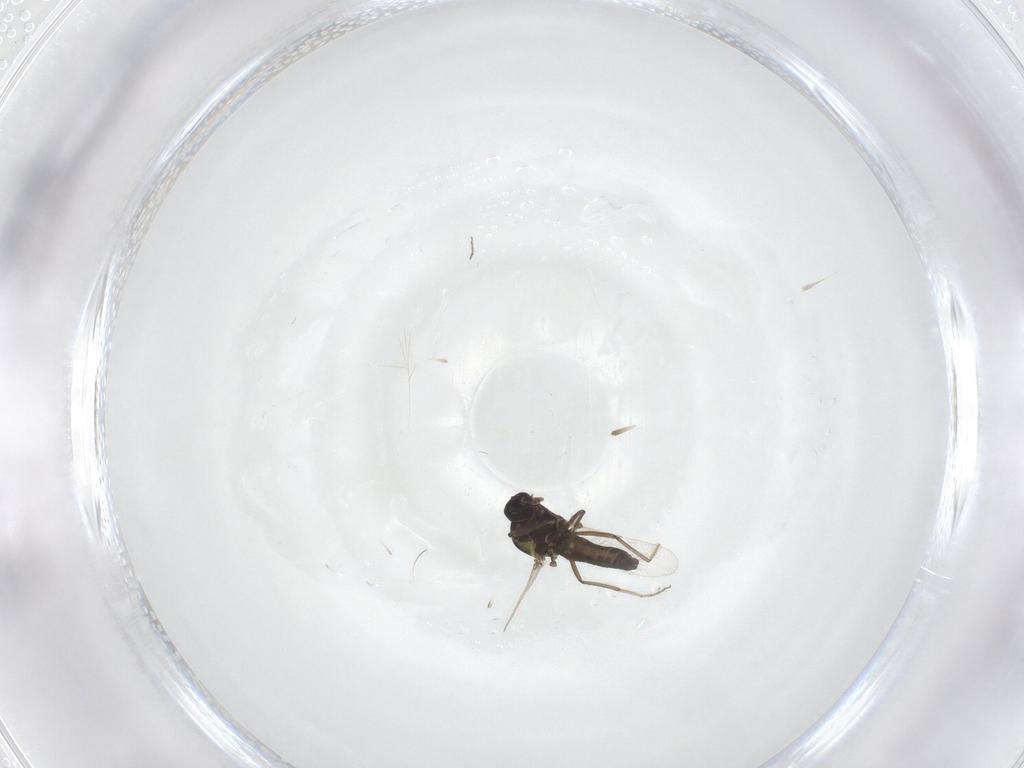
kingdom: Animalia
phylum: Arthropoda
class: Insecta
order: Diptera
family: Ceratopogonidae
